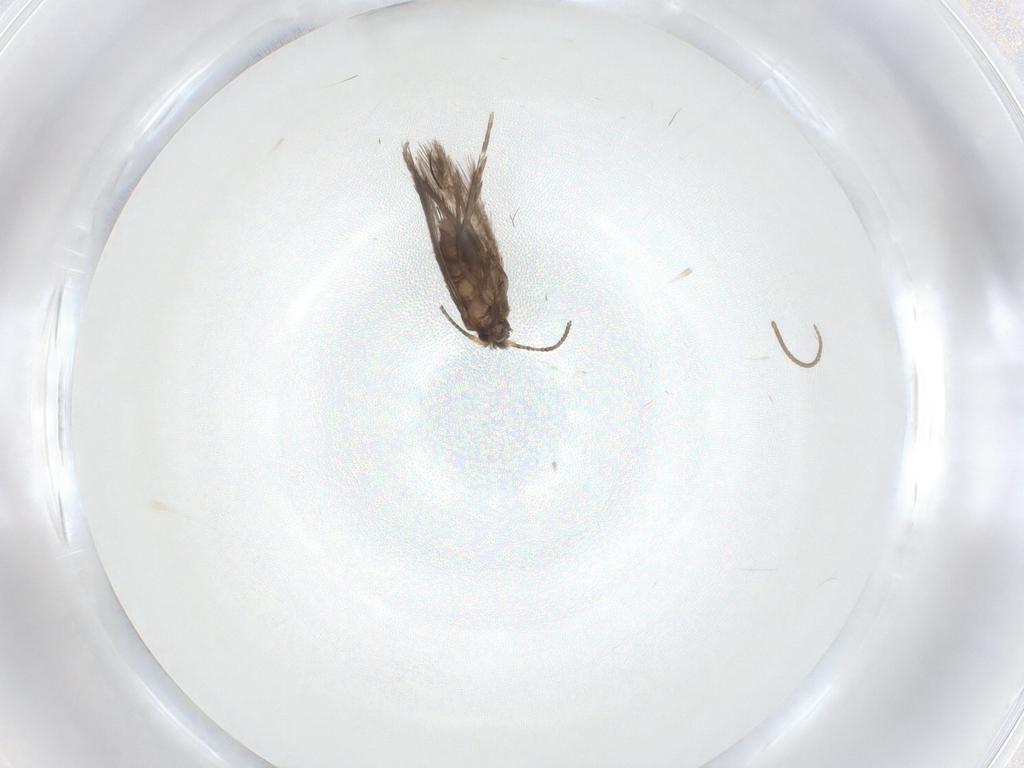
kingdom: Animalia
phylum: Arthropoda
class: Insecta
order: Lepidoptera
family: Nepticulidae
